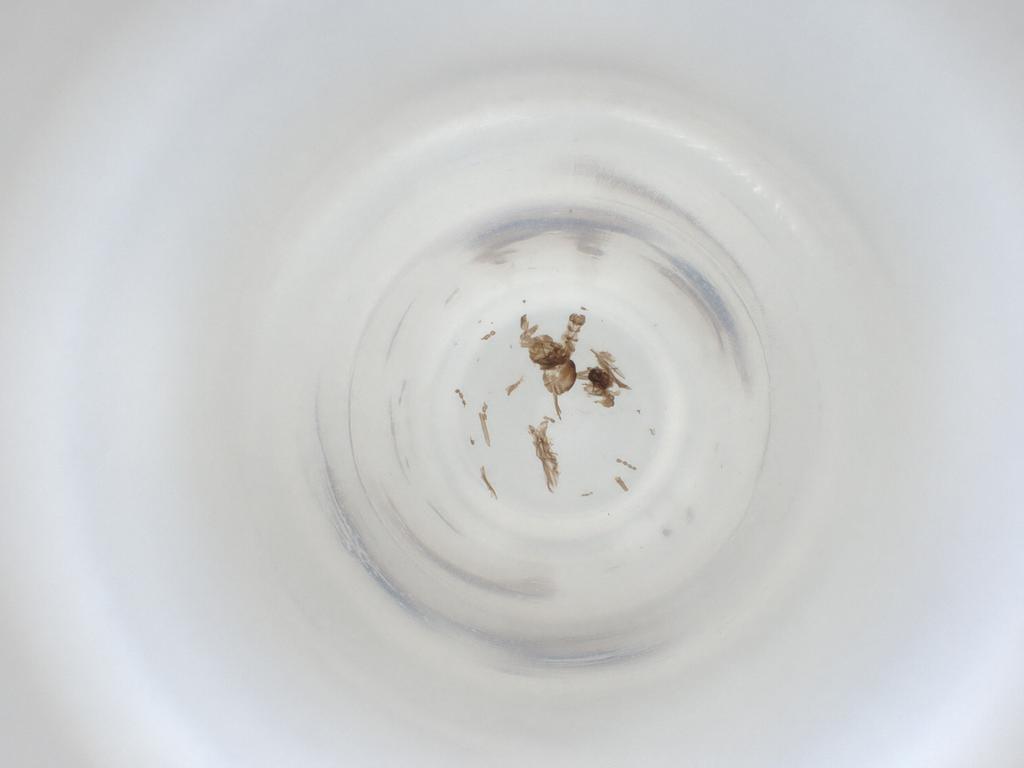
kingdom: Animalia
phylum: Arthropoda
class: Insecta
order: Diptera
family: Cecidomyiidae
